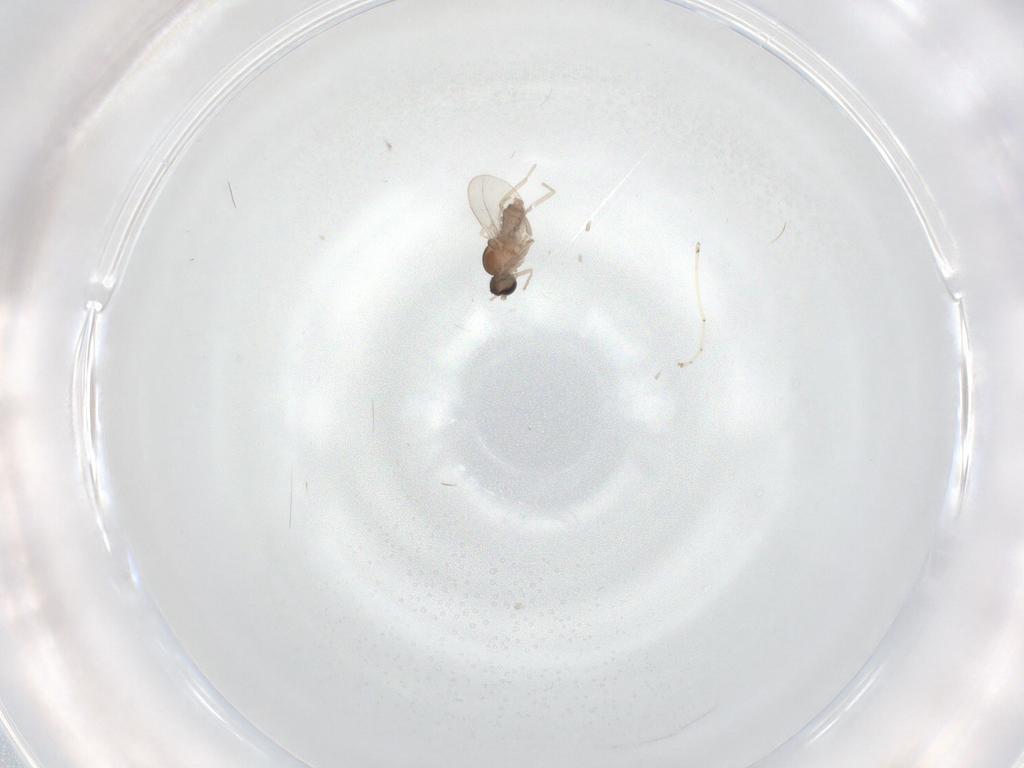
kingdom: Animalia
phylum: Arthropoda
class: Insecta
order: Diptera
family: Cecidomyiidae
